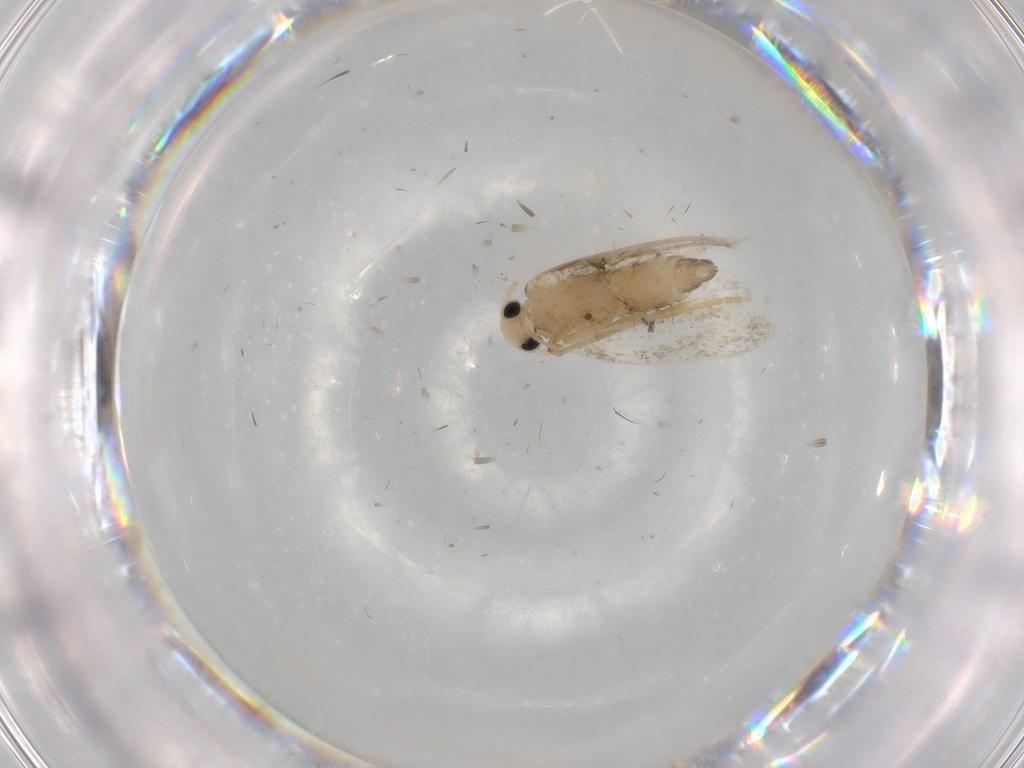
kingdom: Animalia
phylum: Arthropoda
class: Insecta
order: Lepidoptera
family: Psychidae
